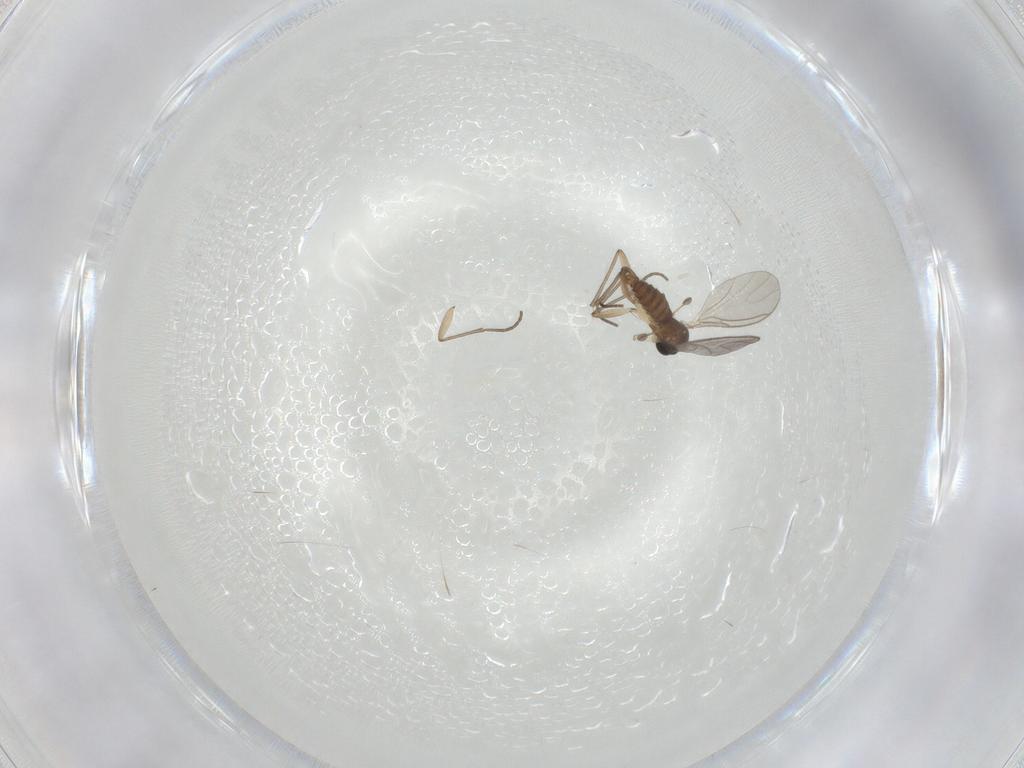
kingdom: Animalia
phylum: Arthropoda
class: Insecta
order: Diptera
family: Sciaridae
